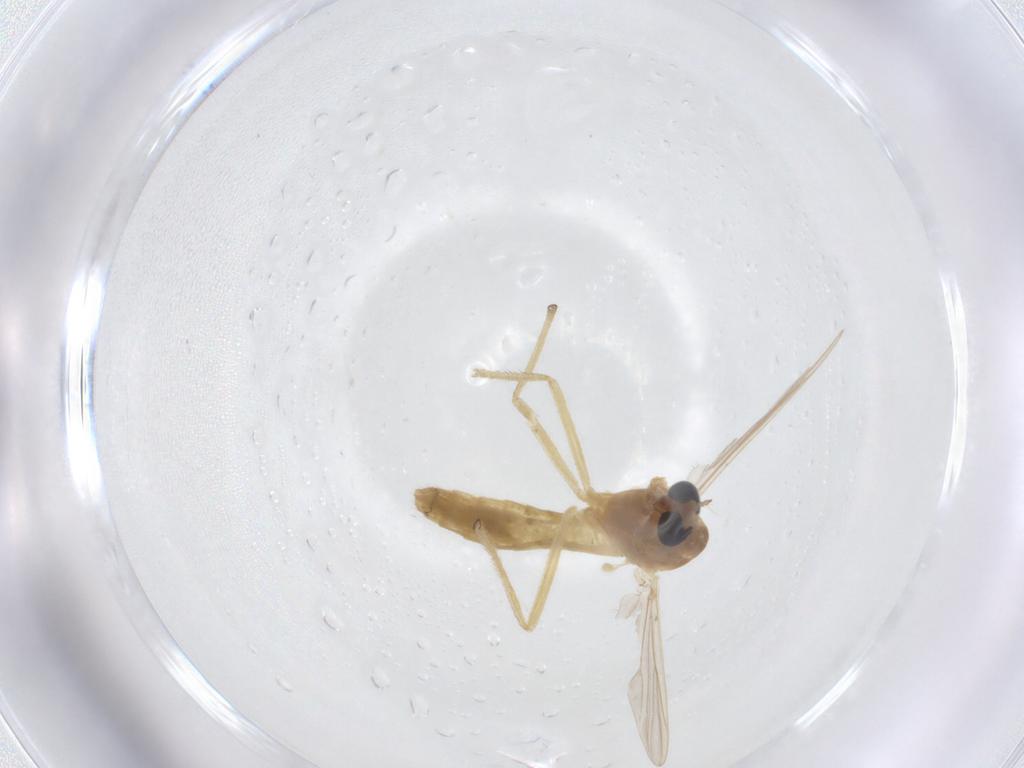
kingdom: Animalia
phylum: Arthropoda
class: Insecta
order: Diptera
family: Chironomidae
